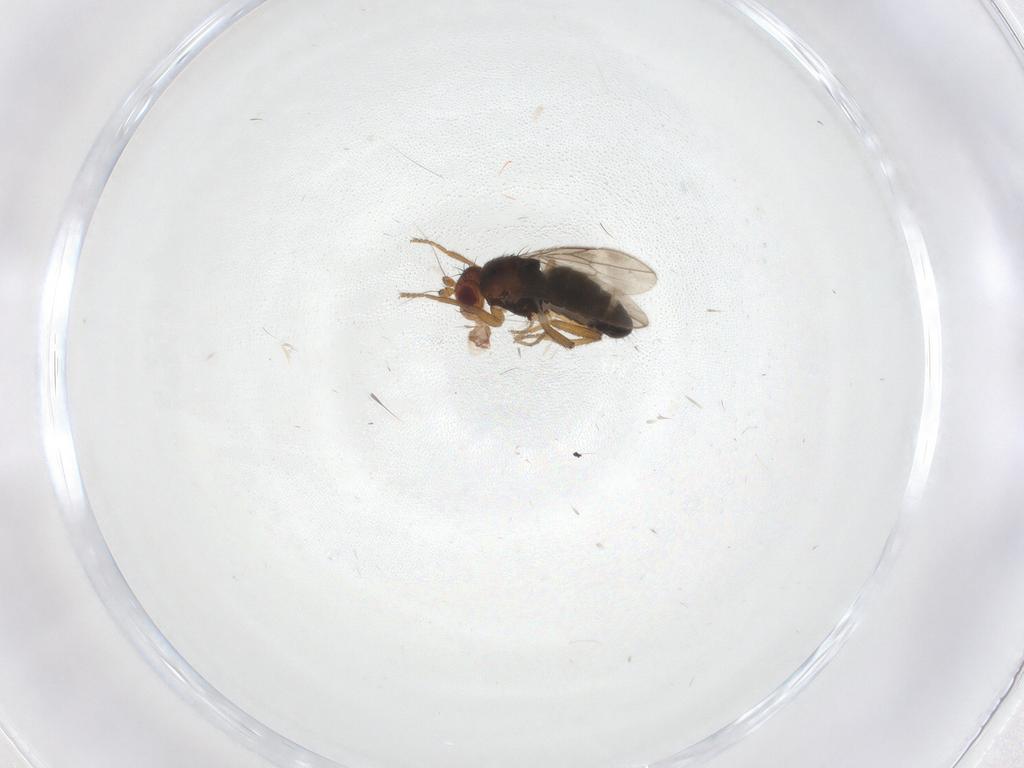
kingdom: Animalia
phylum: Arthropoda
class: Insecta
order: Diptera
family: Sphaeroceridae
